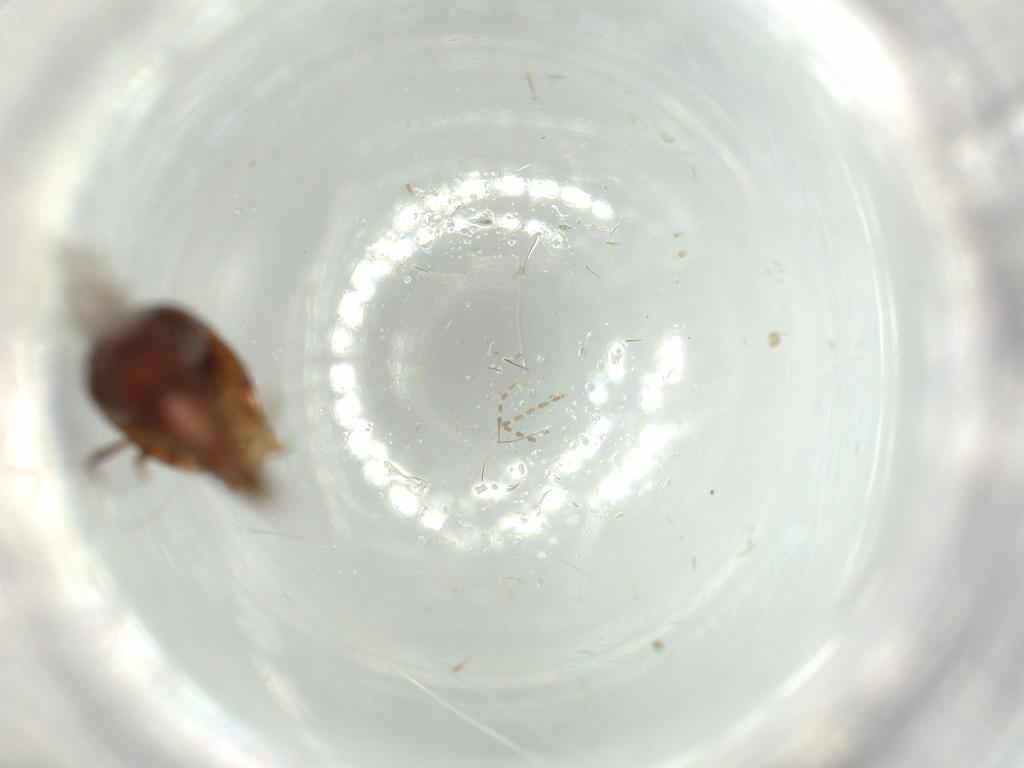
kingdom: Animalia
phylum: Arthropoda
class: Insecta
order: Coleoptera
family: Staphylinidae
